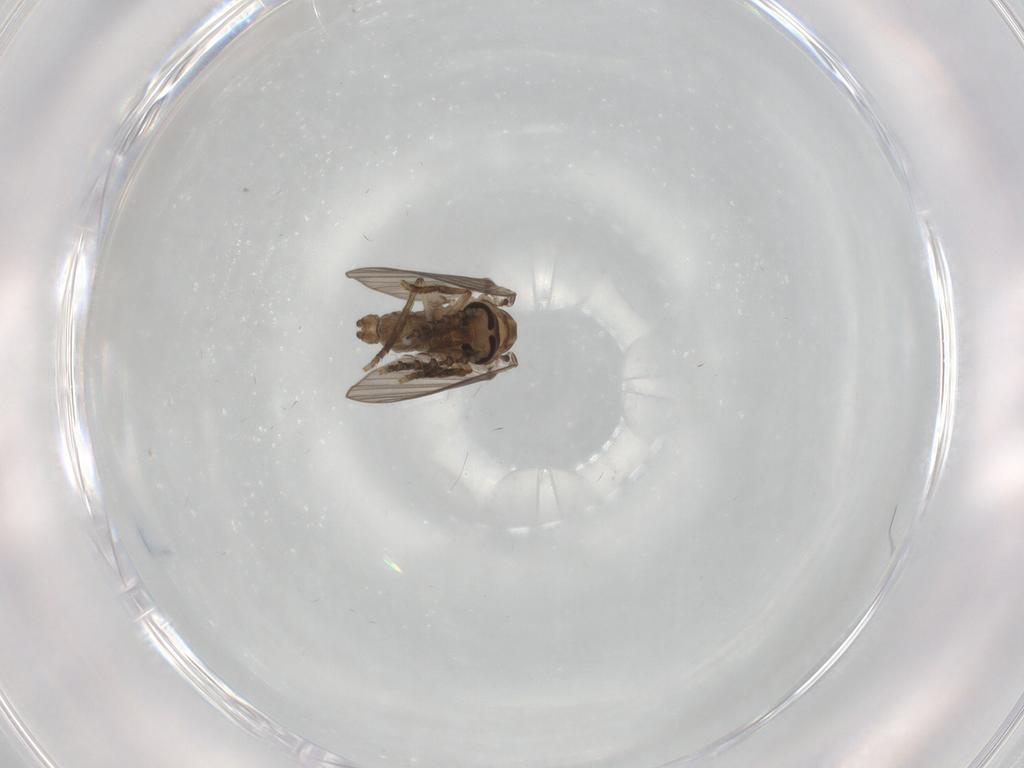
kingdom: Animalia
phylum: Arthropoda
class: Insecta
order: Diptera
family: Psychodidae
